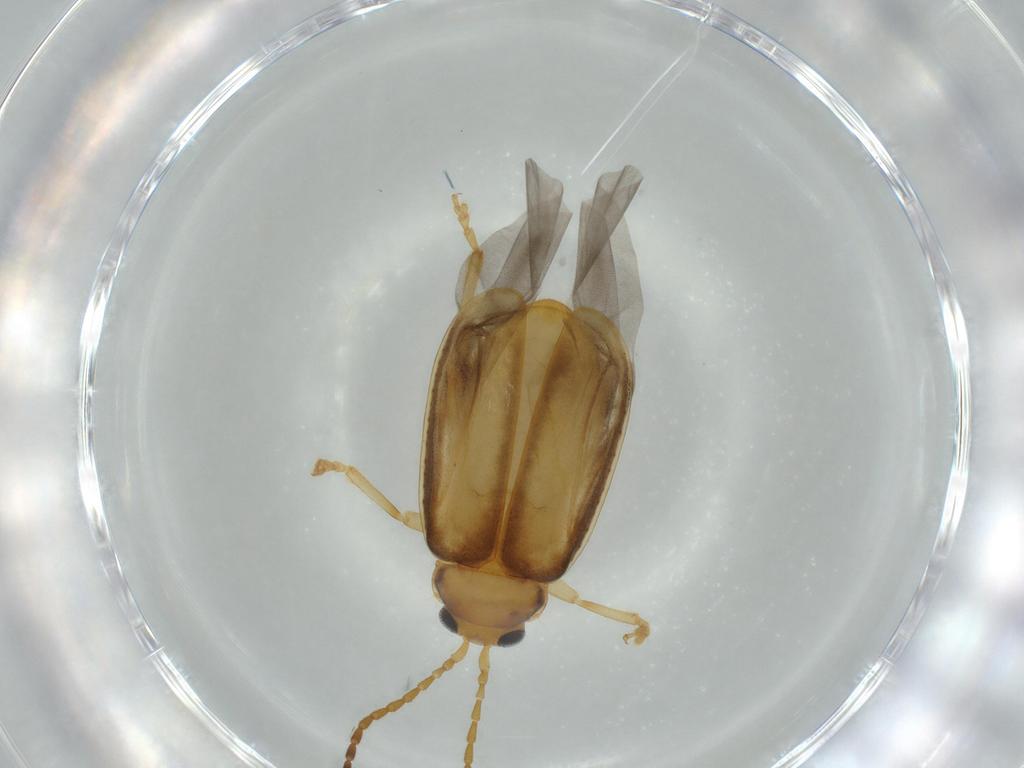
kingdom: Animalia
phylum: Arthropoda
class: Insecta
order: Coleoptera
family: Chrysomelidae
